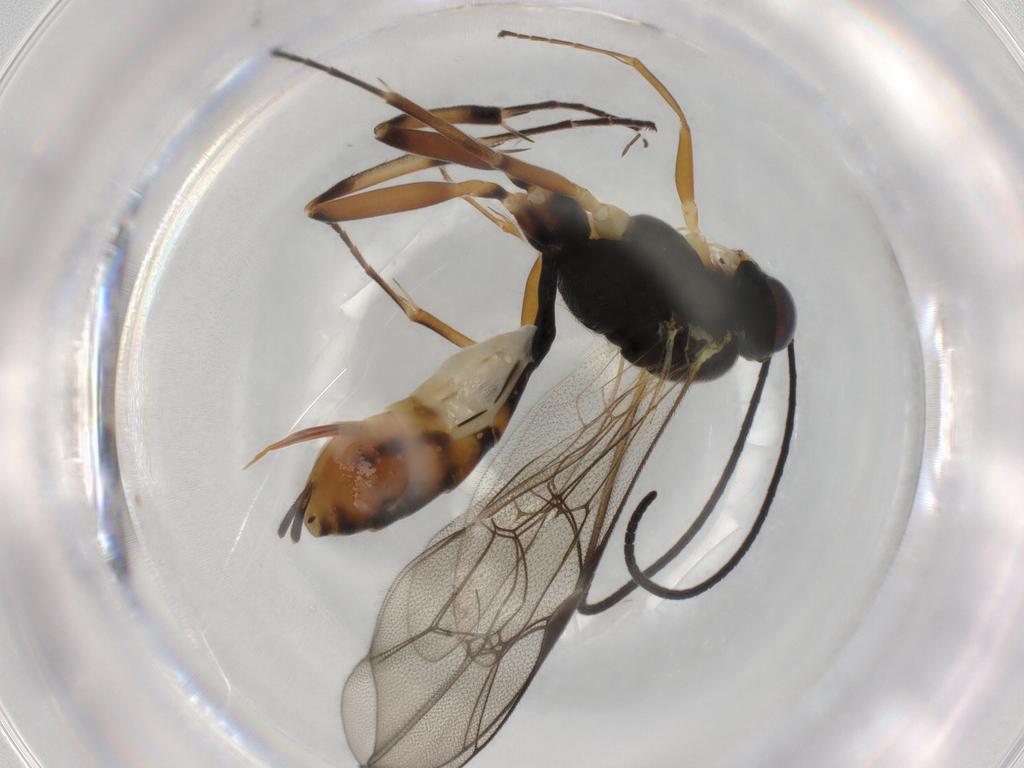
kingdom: Animalia
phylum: Arthropoda
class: Insecta
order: Hymenoptera
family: Ichneumonidae
